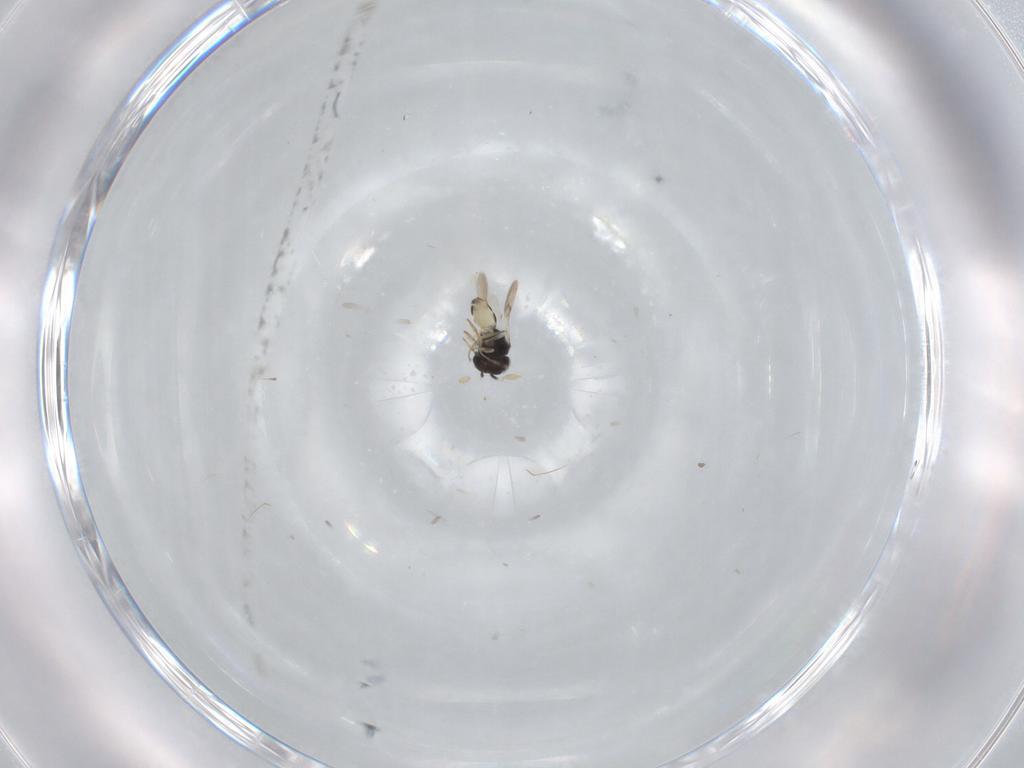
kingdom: Animalia
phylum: Arthropoda
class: Insecta
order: Hymenoptera
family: Scelionidae
